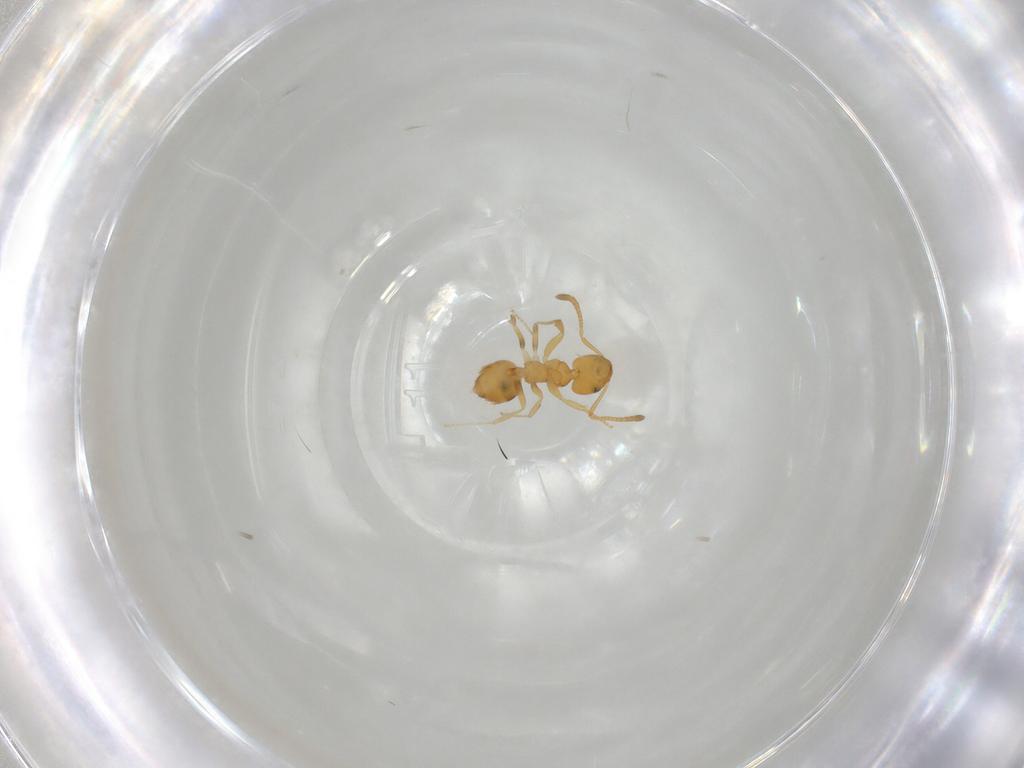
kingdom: Animalia
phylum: Arthropoda
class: Insecta
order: Hymenoptera
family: Formicidae
